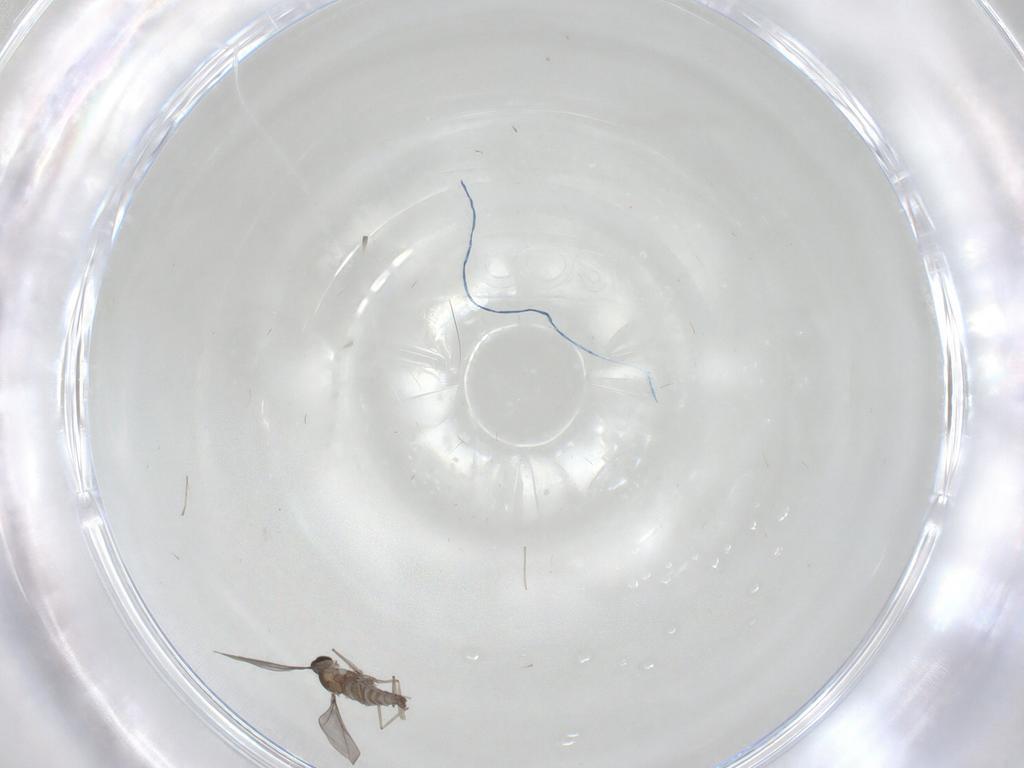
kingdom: Animalia
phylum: Arthropoda
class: Insecta
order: Diptera
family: Cecidomyiidae
